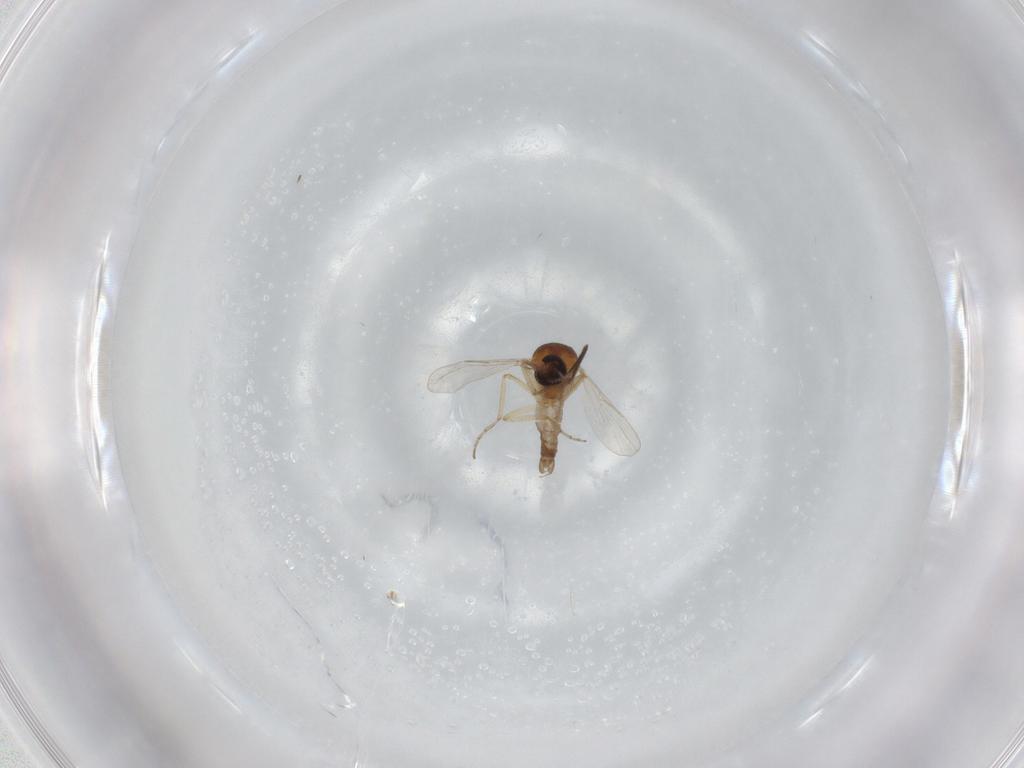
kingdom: Animalia
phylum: Arthropoda
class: Insecta
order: Diptera
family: Ceratopogonidae
